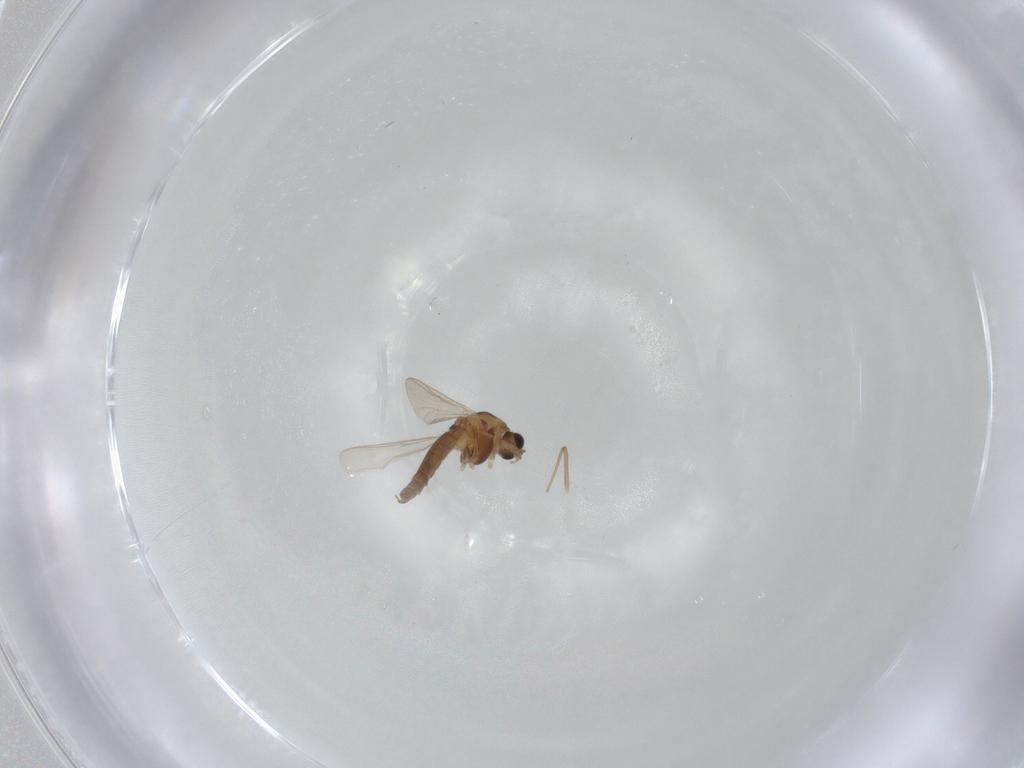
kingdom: Animalia
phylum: Arthropoda
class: Insecta
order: Diptera
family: Chironomidae
